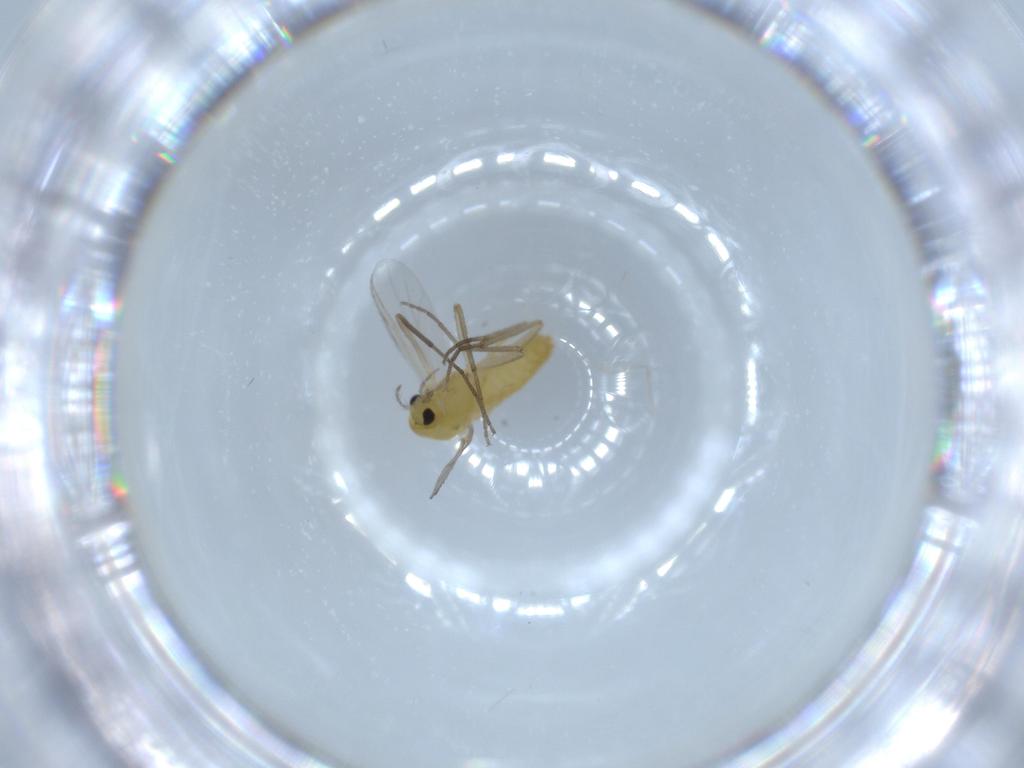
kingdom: Animalia
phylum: Arthropoda
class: Insecta
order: Diptera
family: Chironomidae
